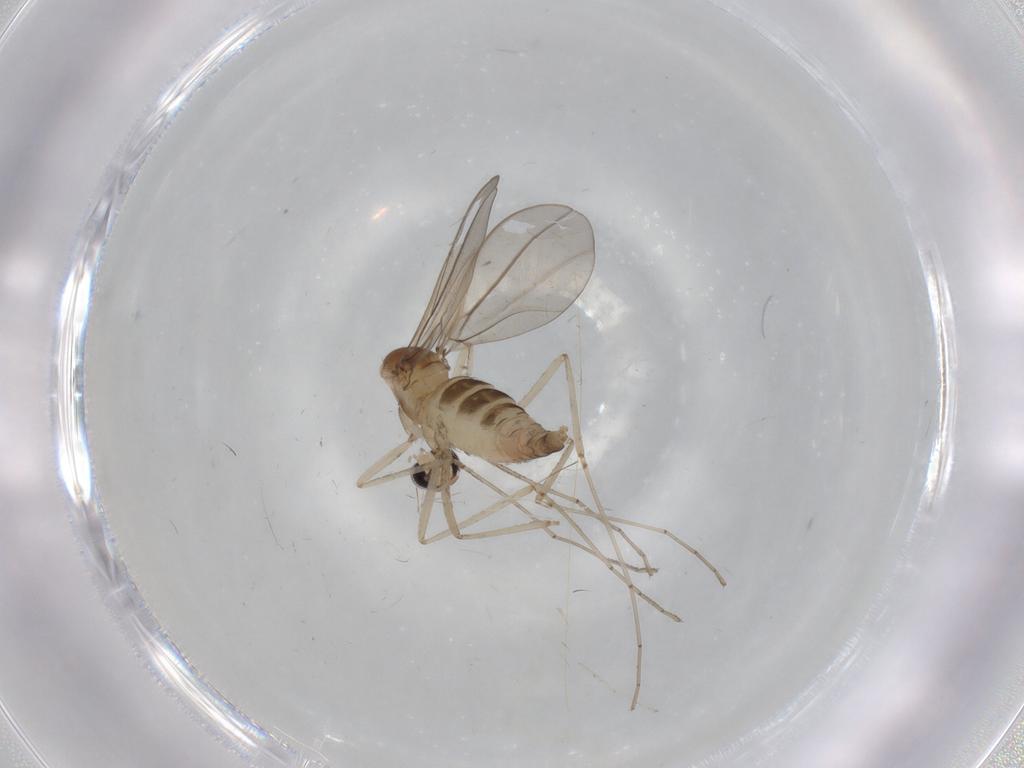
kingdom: Animalia
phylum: Arthropoda
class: Insecta
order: Diptera
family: Cecidomyiidae
